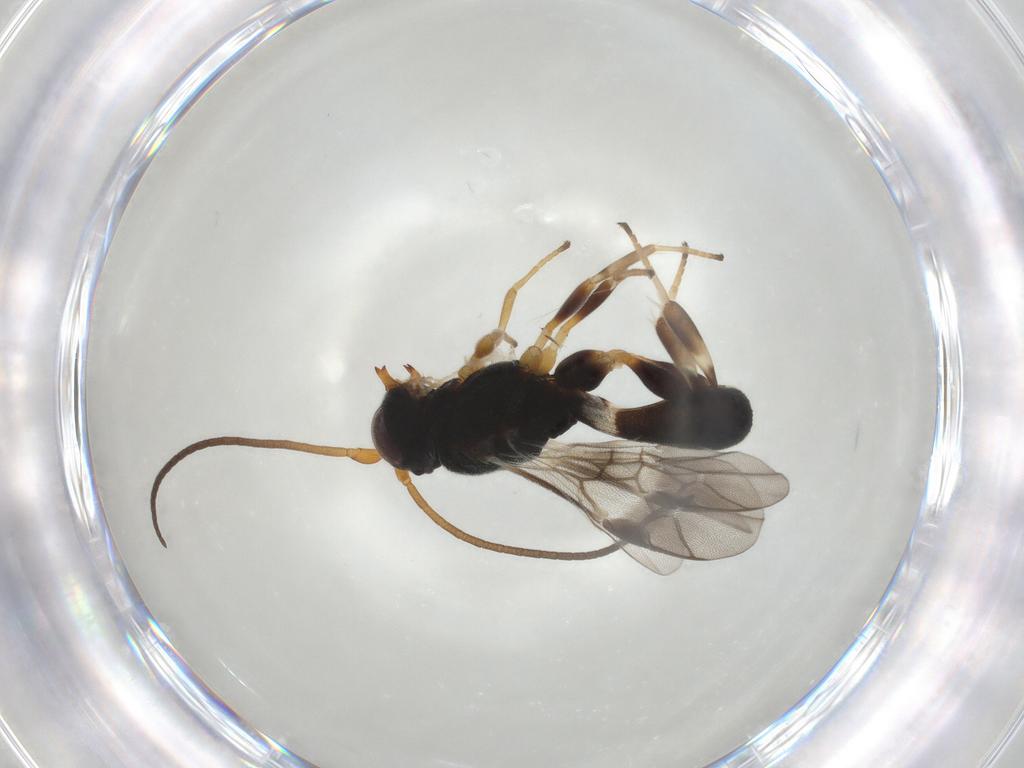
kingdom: Animalia
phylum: Arthropoda
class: Insecta
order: Hymenoptera
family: Braconidae
